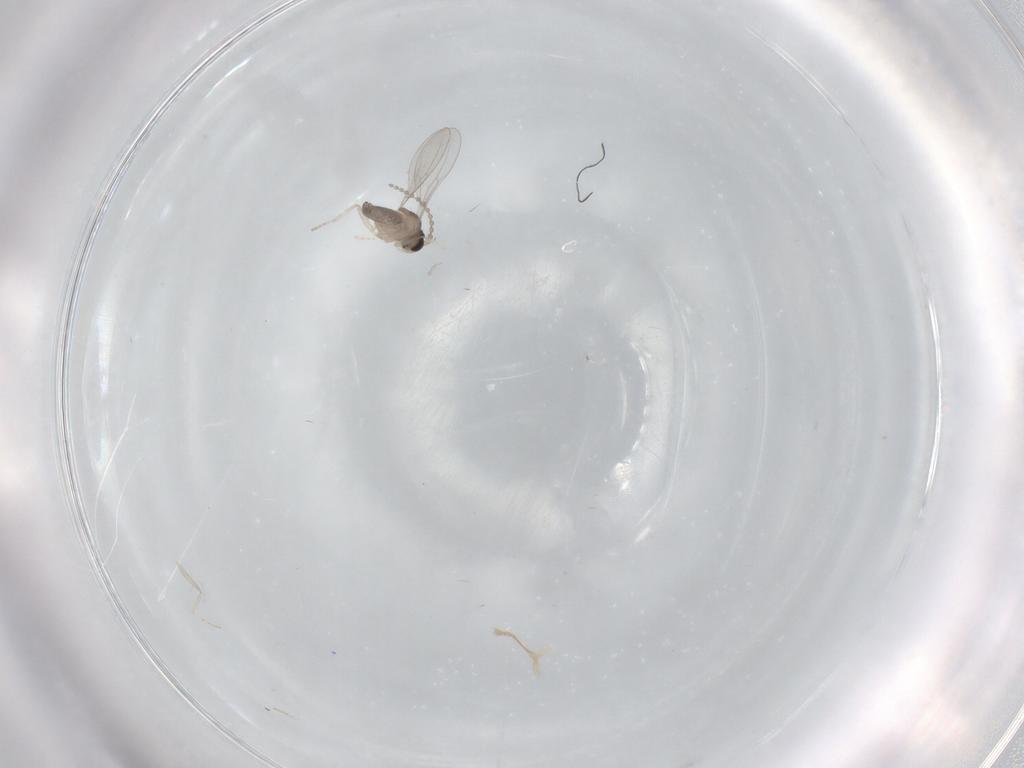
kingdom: Animalia
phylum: Arthropoda
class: Insecta
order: Diptera
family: Cecidomyiidae
